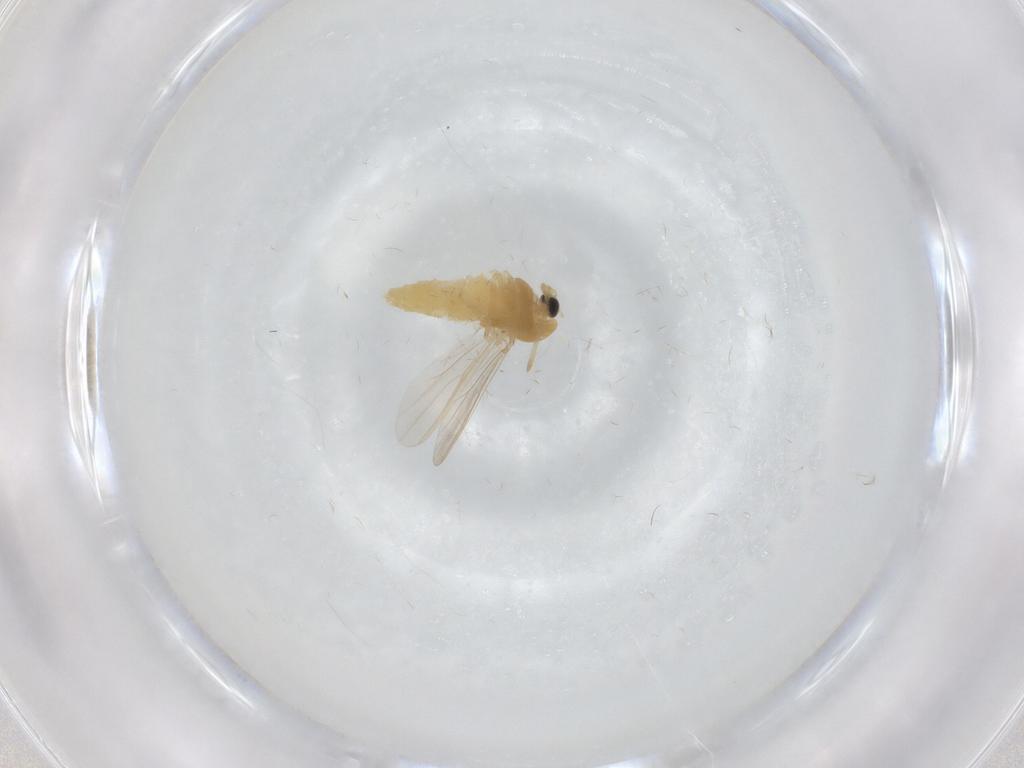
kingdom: Animalia
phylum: Arthropoda
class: Insecta
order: Diptera
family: Chironomidae
